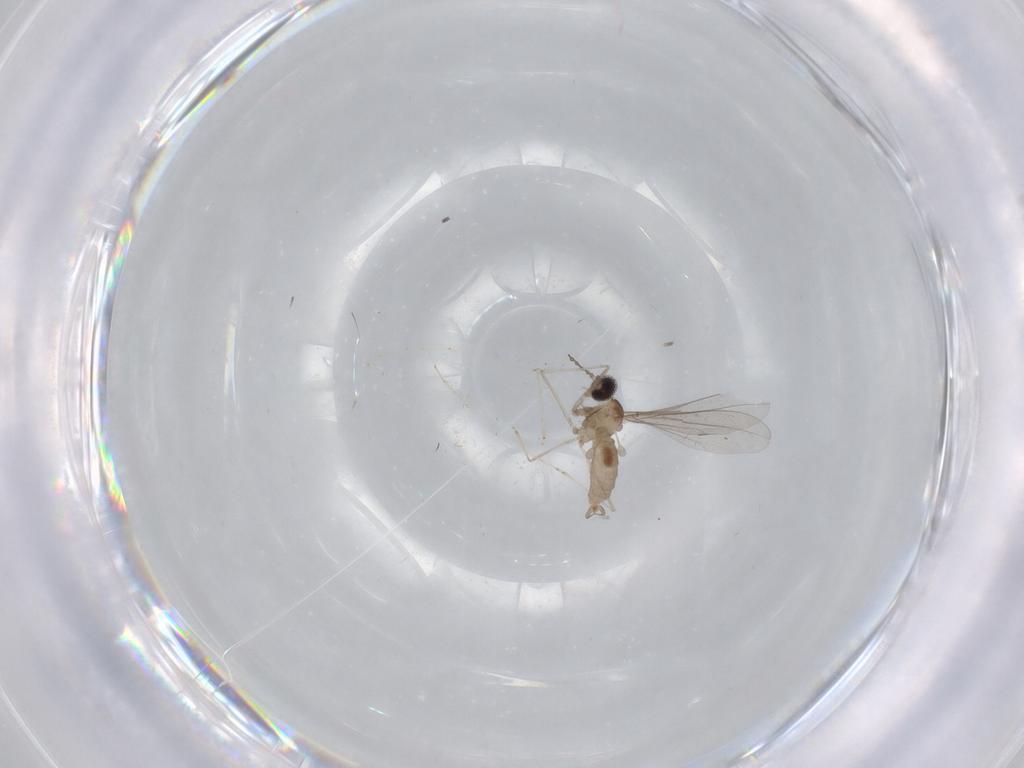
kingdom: Animalia
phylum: Arthropoda
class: Insecta
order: Diptera
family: Cecidomyiidae
